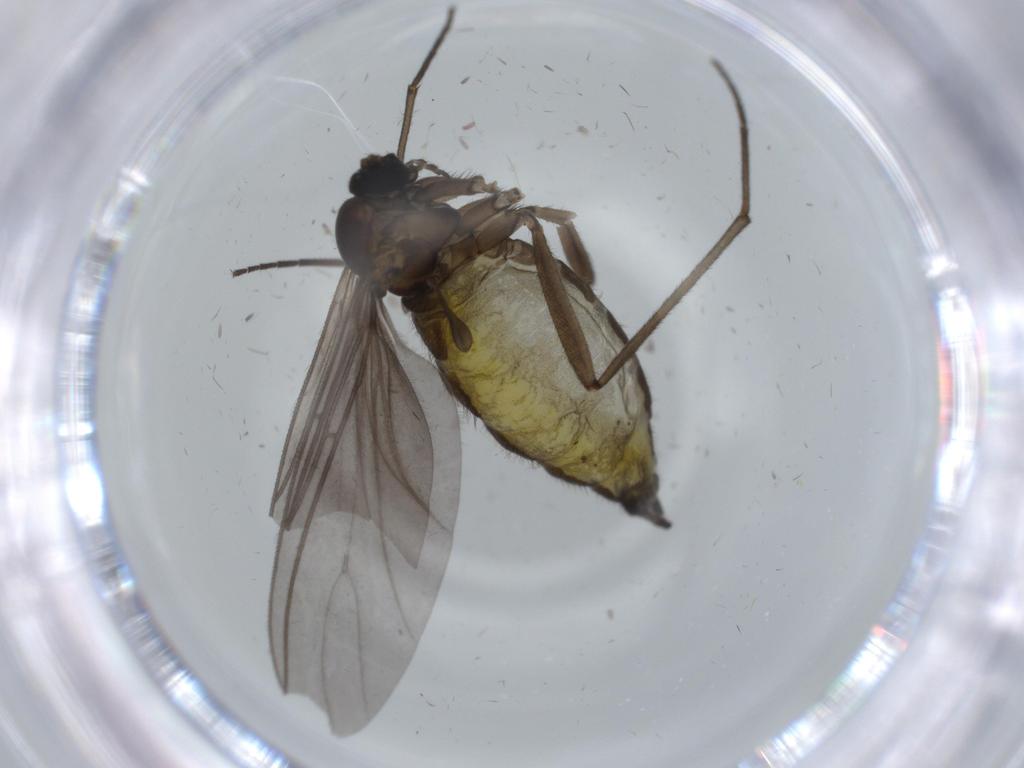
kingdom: Animalia
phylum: Arthropoda
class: Insecta
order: Diptera
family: Sciaridae
